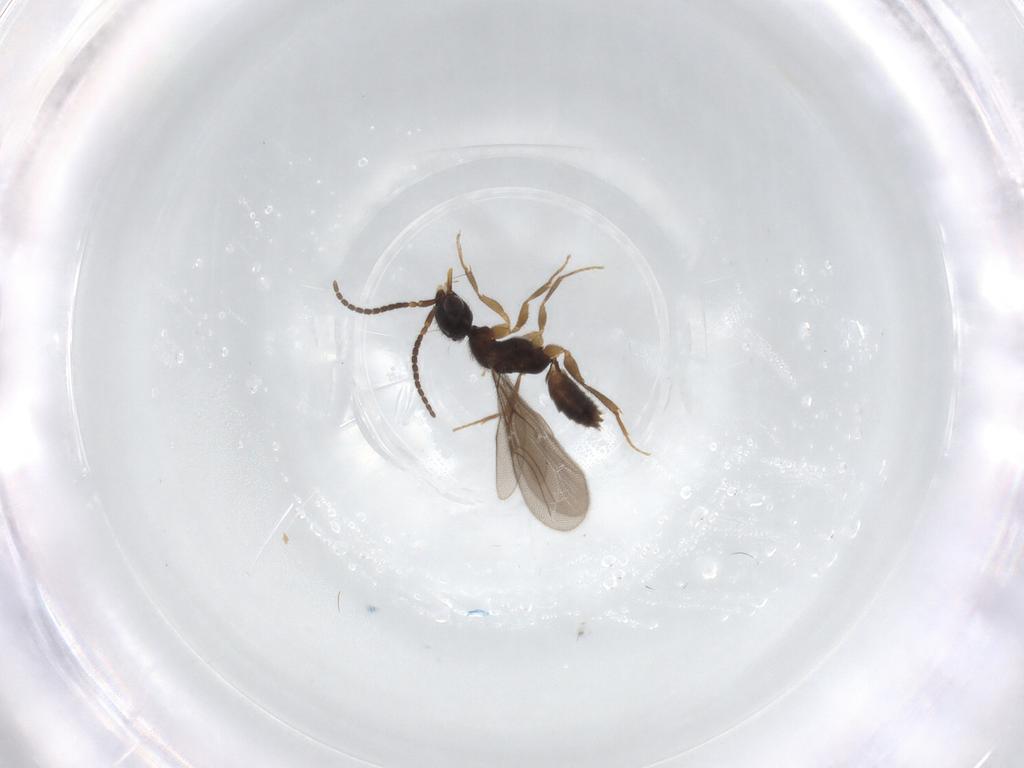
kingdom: Animalia
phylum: Arthropoda
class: Insecta
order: Hymenoptera
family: Bethylidae
